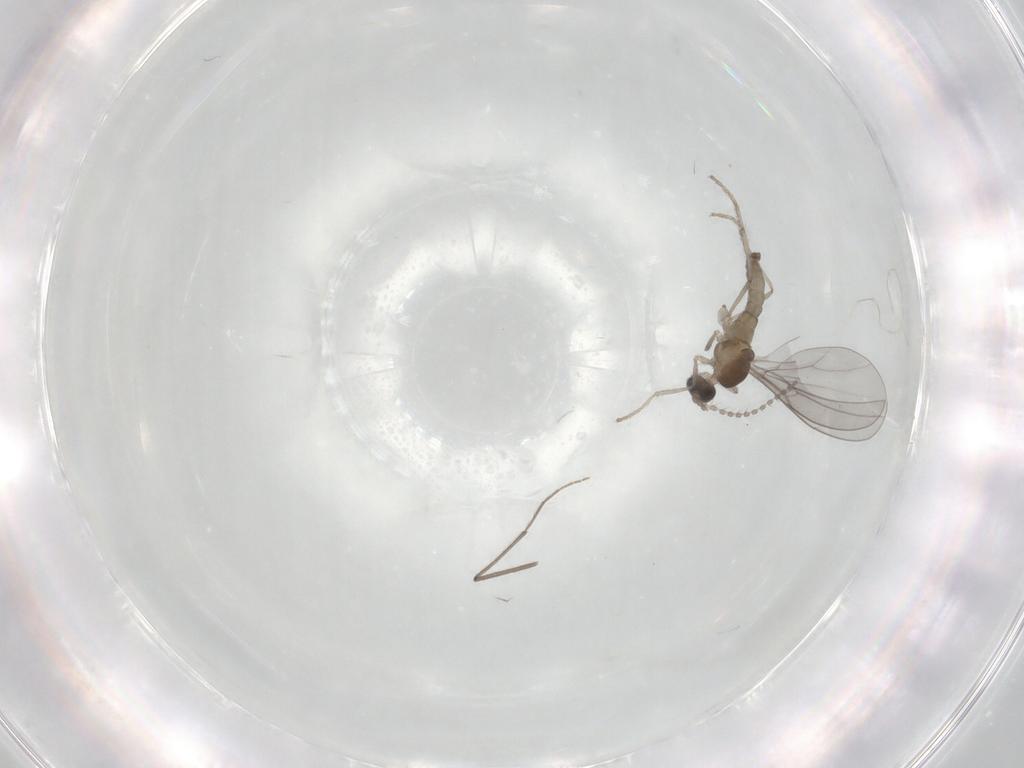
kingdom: Animalia
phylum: Arthropoda
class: Insecta
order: Diptera
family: Cecidomyiidae
